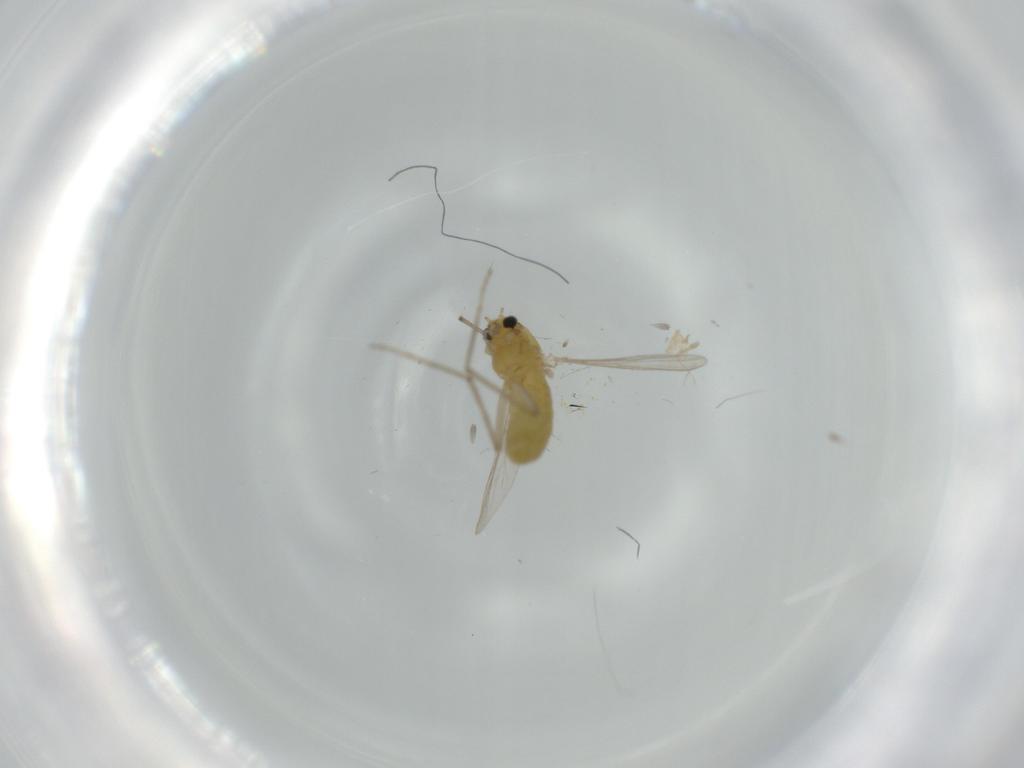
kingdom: Animalia
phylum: Arthropoda
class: Insecta
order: Diptera
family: Chironomidae
